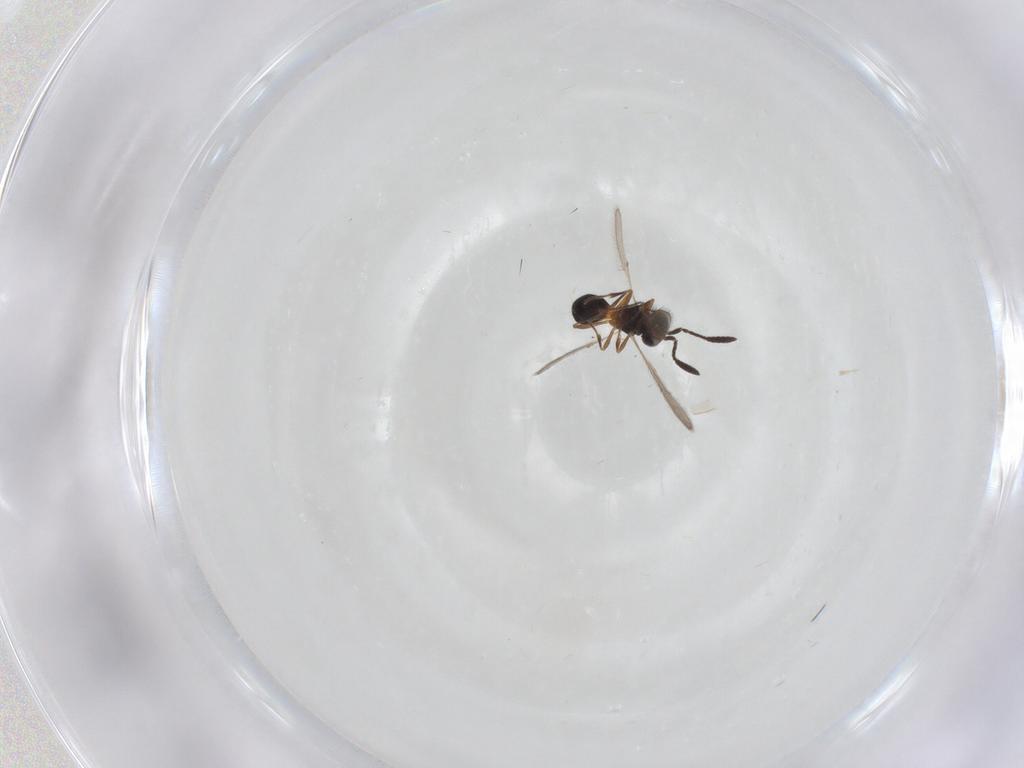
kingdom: Animalia
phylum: Arthropoda
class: Insecta
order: Hymenoptera
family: Scelionidae
